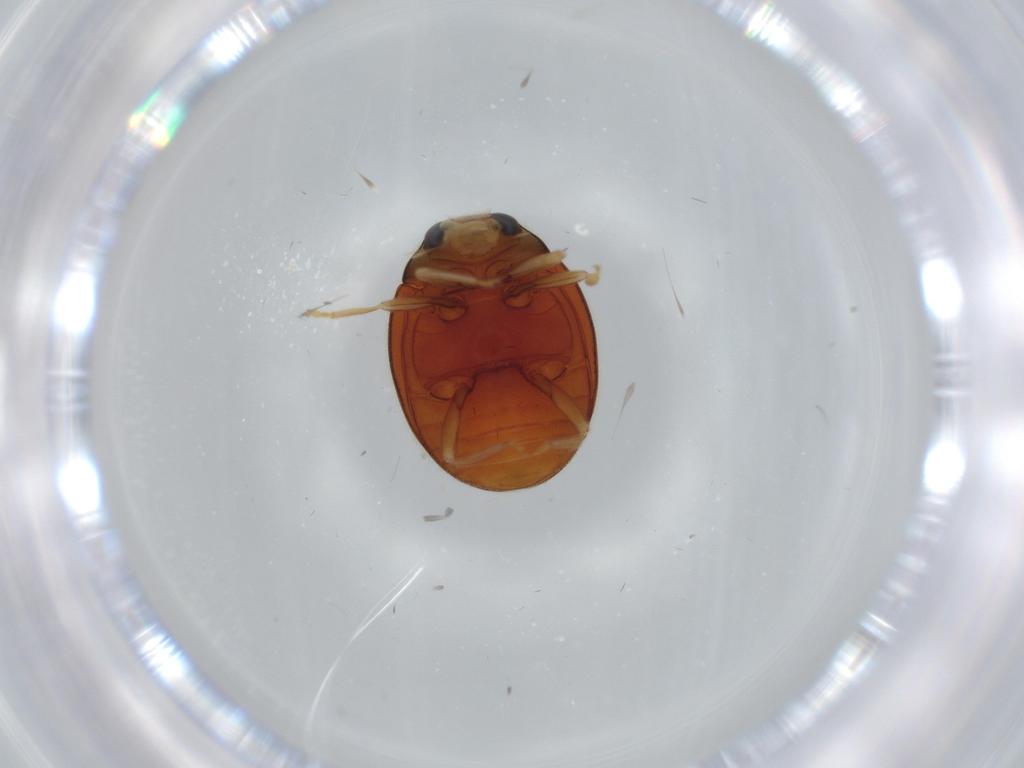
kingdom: Animalia
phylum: Arthropoda
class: Insecta
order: Coleoptera
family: Coccinellidae
